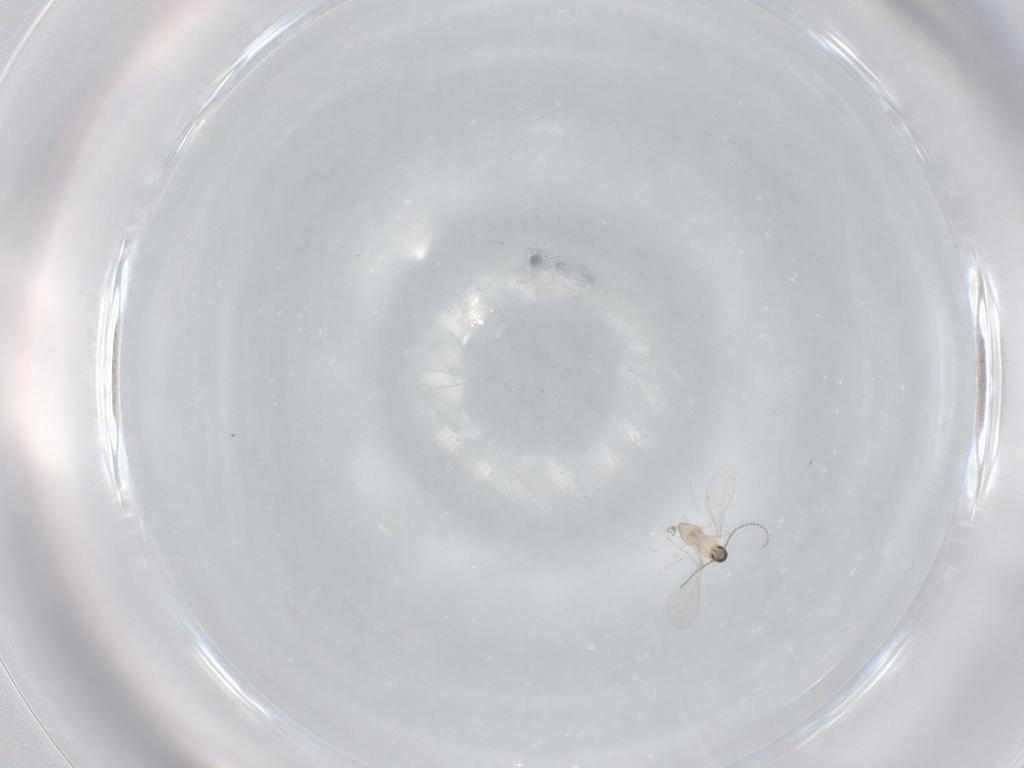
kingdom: Animalia
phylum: Arthropoda
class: Insecta
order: Diptera
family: Cecidomyiidae
